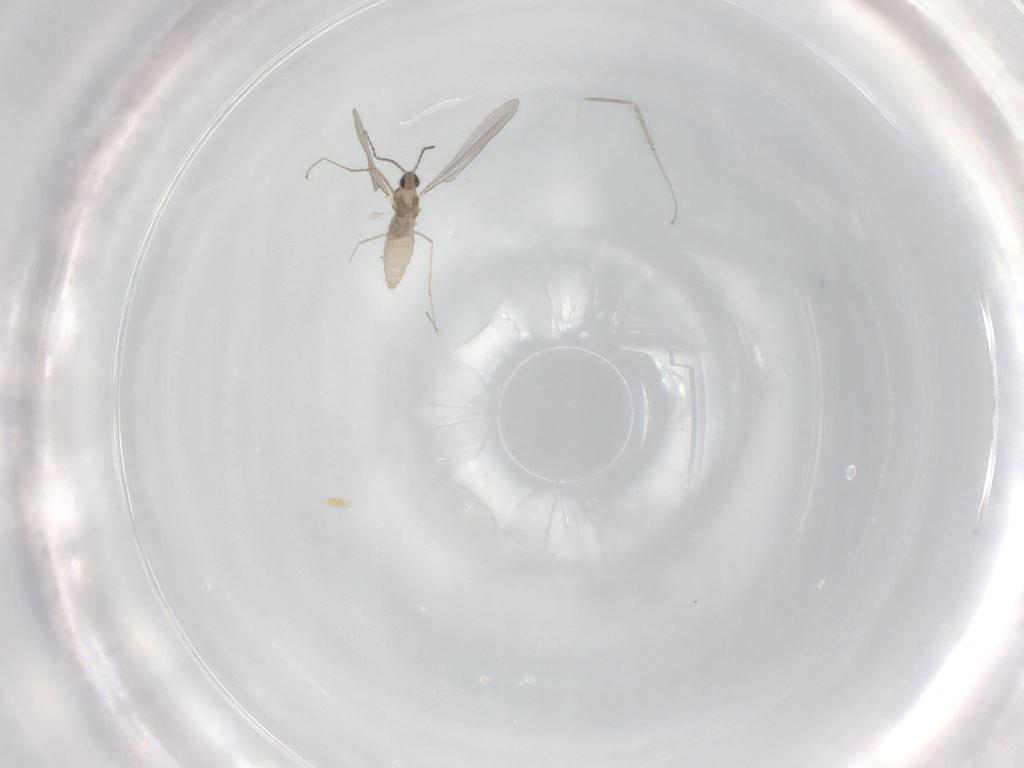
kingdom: Animalia
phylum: Arthropoda
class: Insecta
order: Diptera
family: Cecidomyiidae
